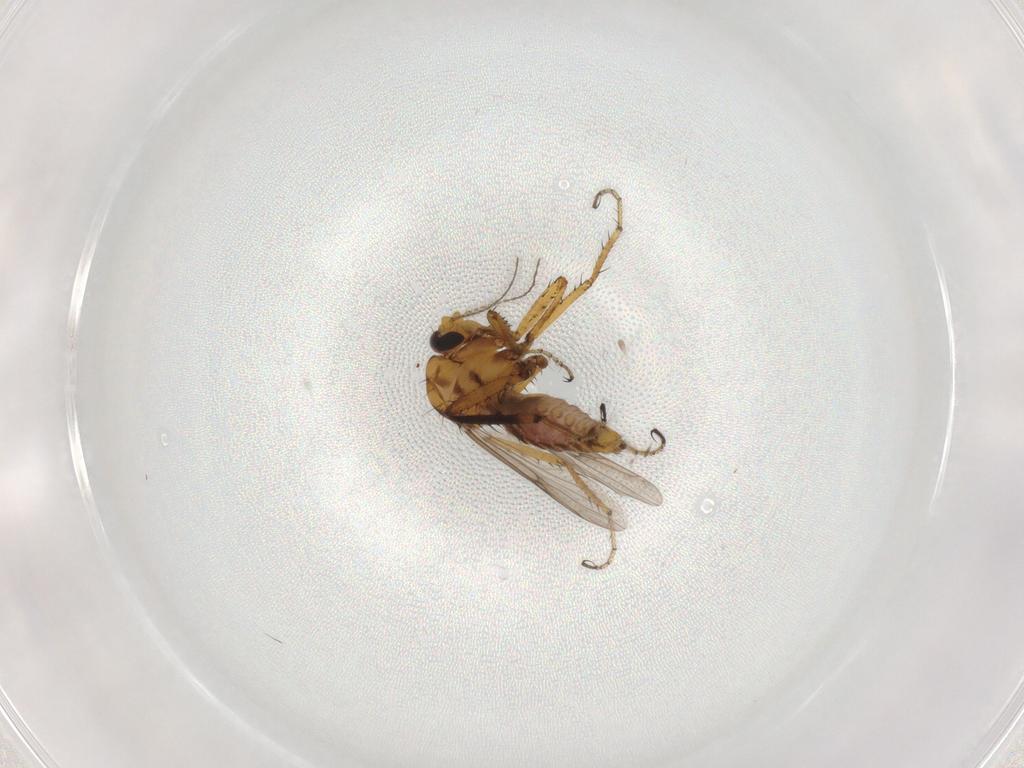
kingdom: Animalia
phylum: Arthropoda
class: Insecta
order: Diptera
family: Ceratopogonidae
